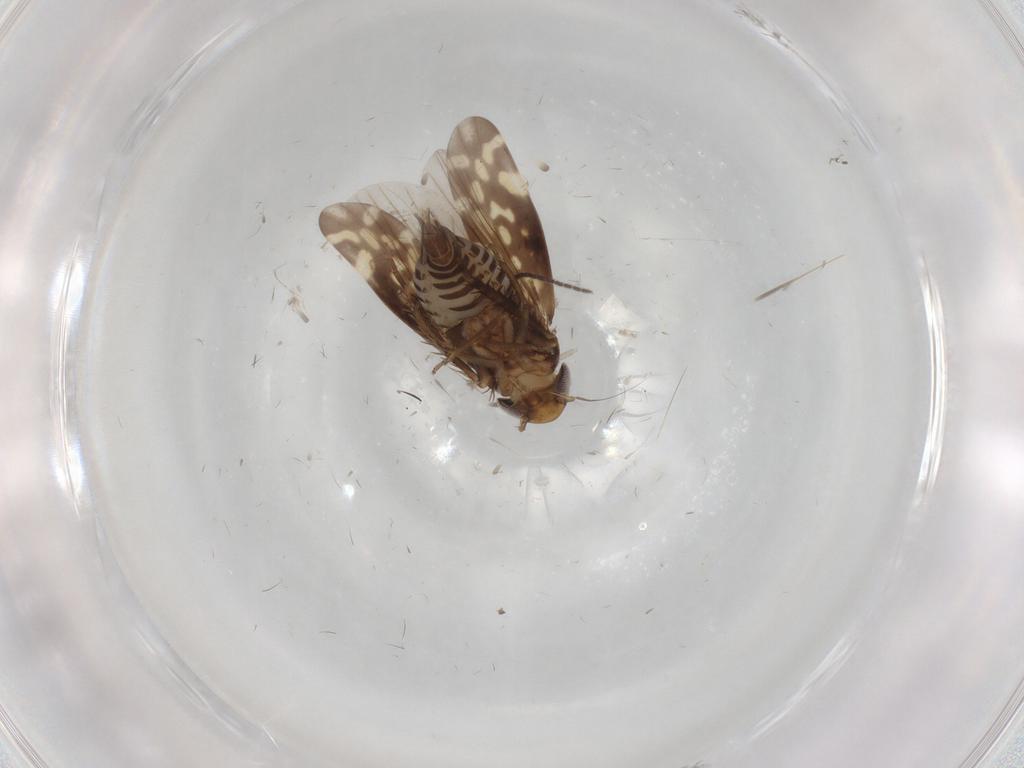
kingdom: Animalia
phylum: Arthropoda
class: Insecta
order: Hemiptera
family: Cicadellidae
